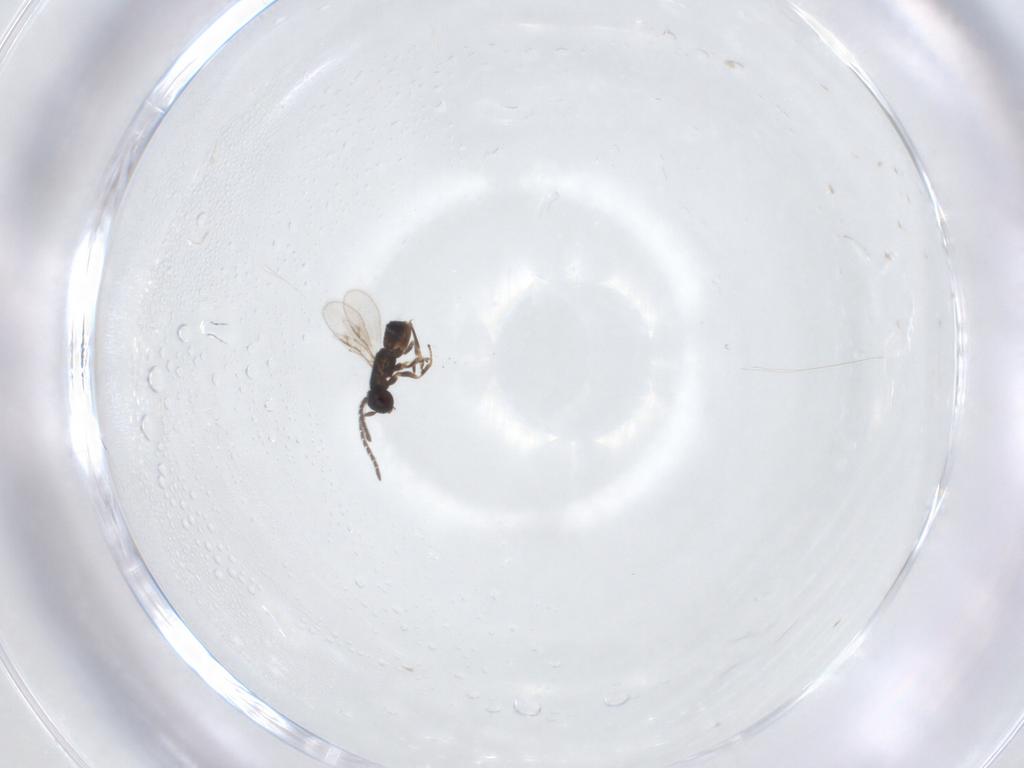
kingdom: Animalia
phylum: Arthropoda
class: Insecta
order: Hymenoptera
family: Encyrtidae
